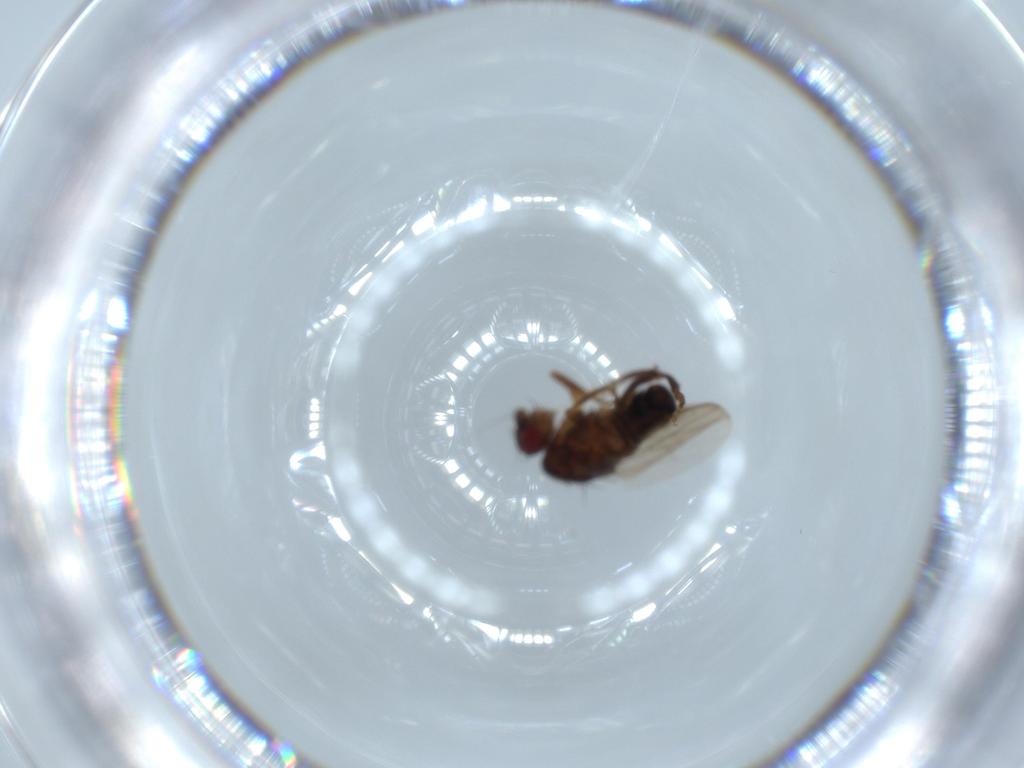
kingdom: Animalia
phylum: Arthropoda
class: Insecta
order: Diptera
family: Sphaeroceridae
